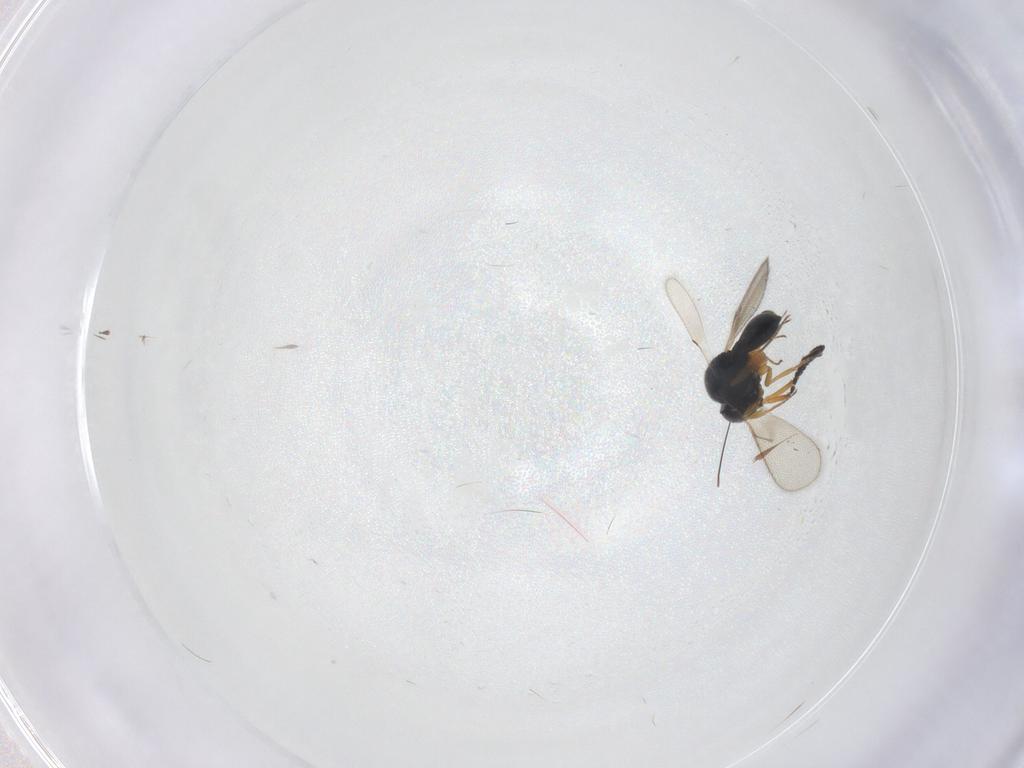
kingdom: Animalia
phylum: Arthropoda
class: Insecta
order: Hymenoptera
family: Scelionidae
